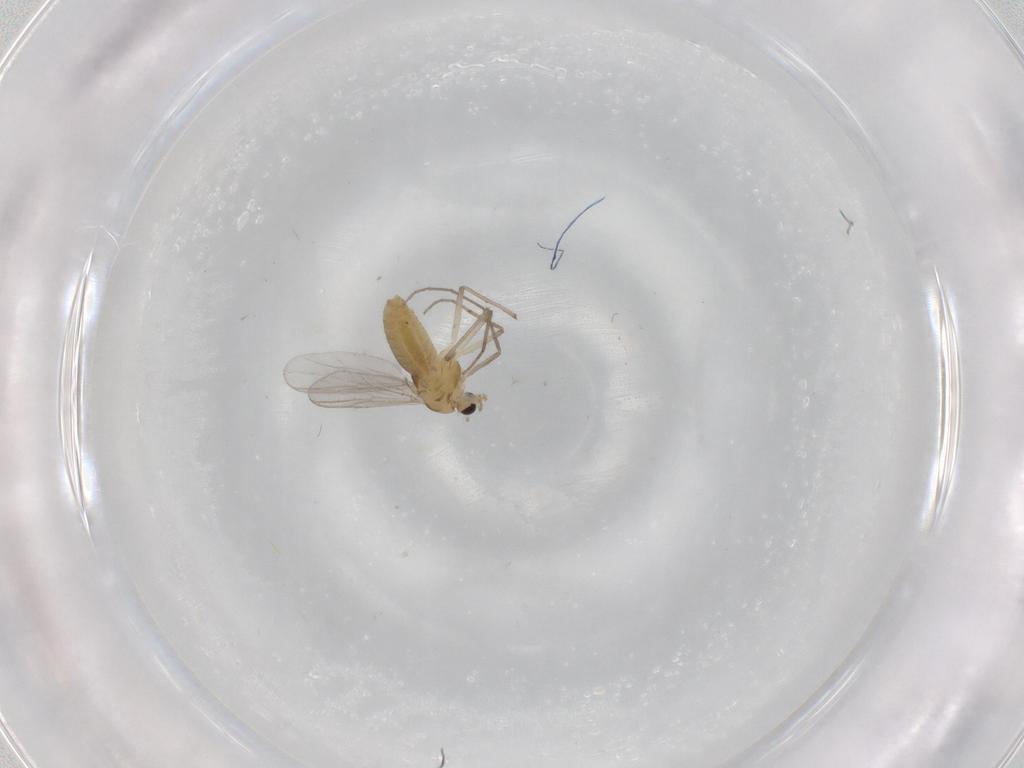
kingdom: Animalia
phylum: Arthropoda
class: Insecta
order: Diptera
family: Chironomidae
